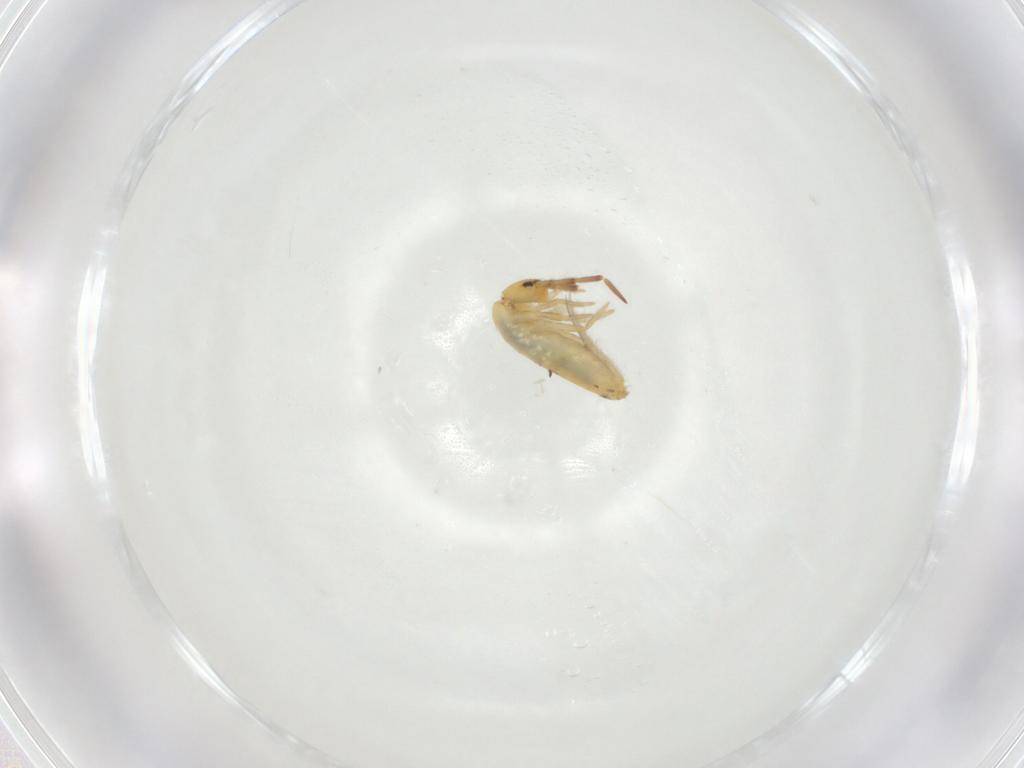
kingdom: Animalia
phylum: Arthropoda
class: Collembola
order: Entomobryomorpha
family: Entomobryidae
